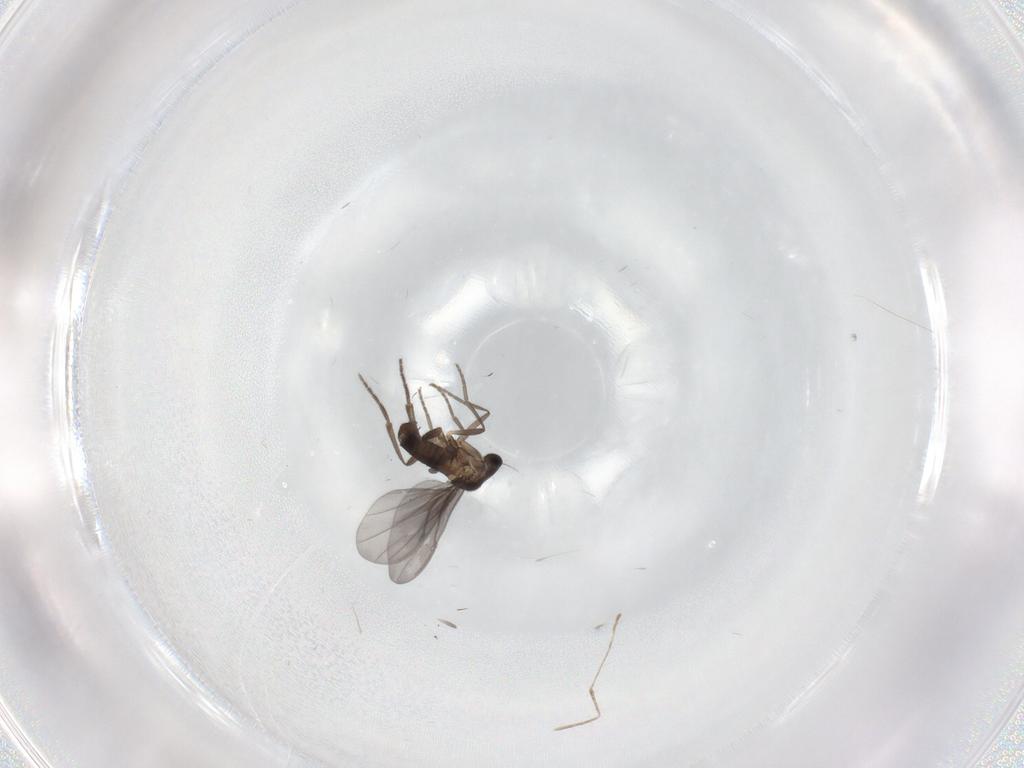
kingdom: Animalia
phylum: Arthropoda
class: Insecta
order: Diptera
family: Phoridae
